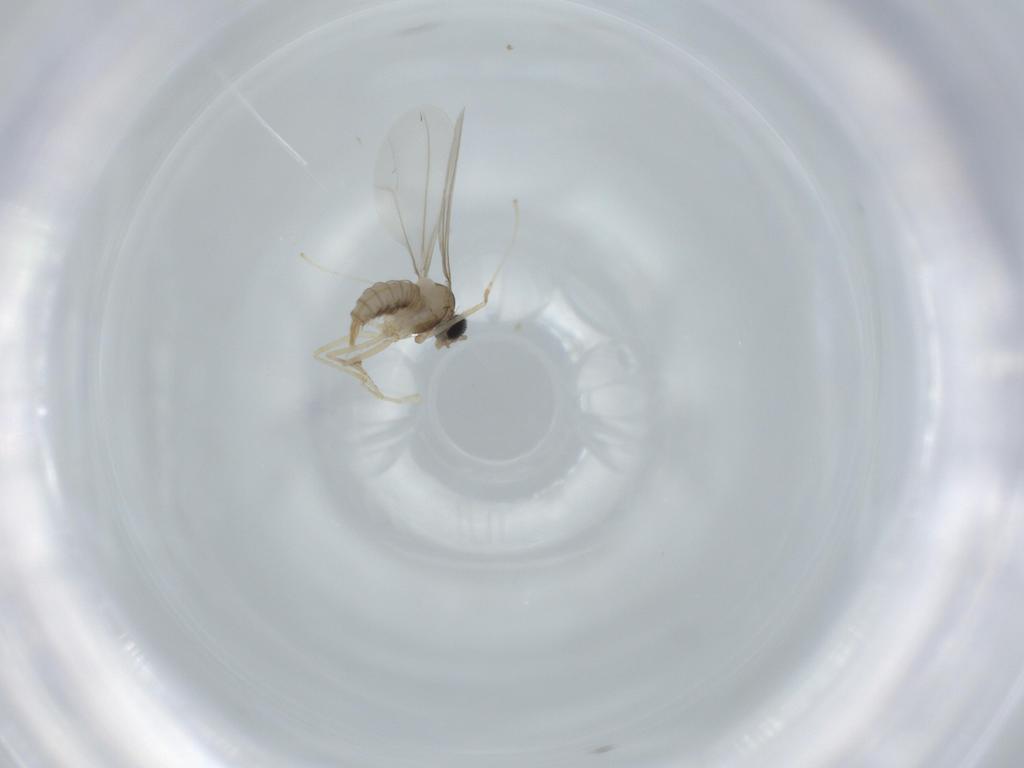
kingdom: Animalia
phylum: Arthropoda
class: Insecta
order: Diptera
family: Cecidomyiidae
